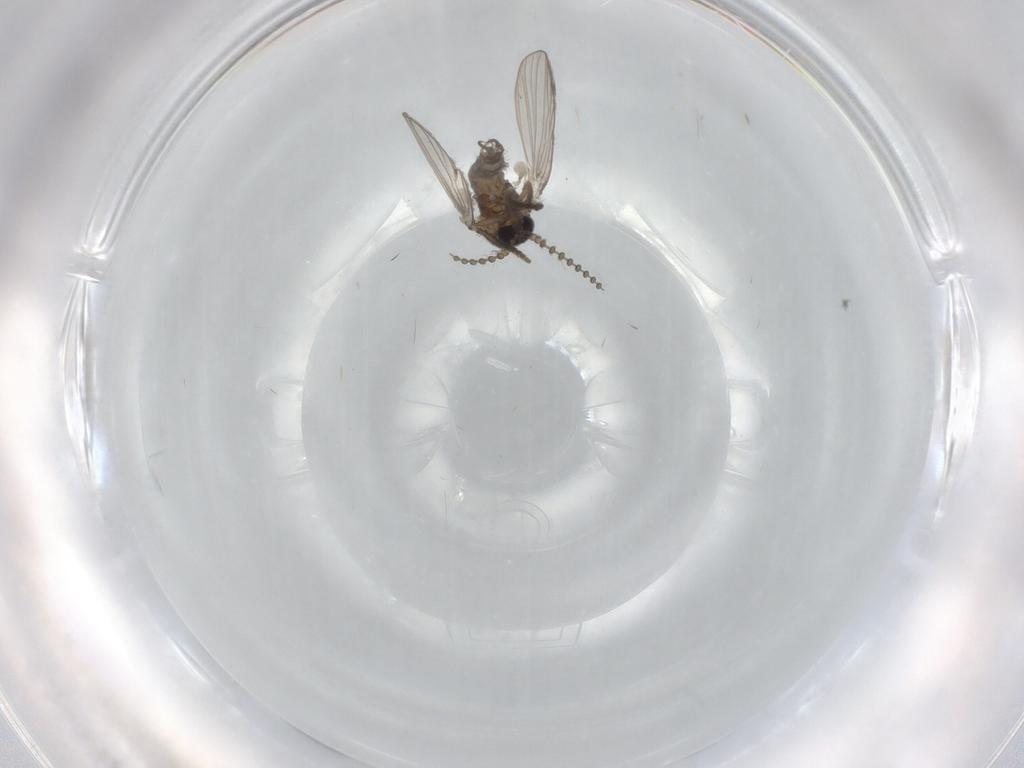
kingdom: Animalia
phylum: Arthropoda
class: Insecta
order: Diptera
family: Psychodidae
